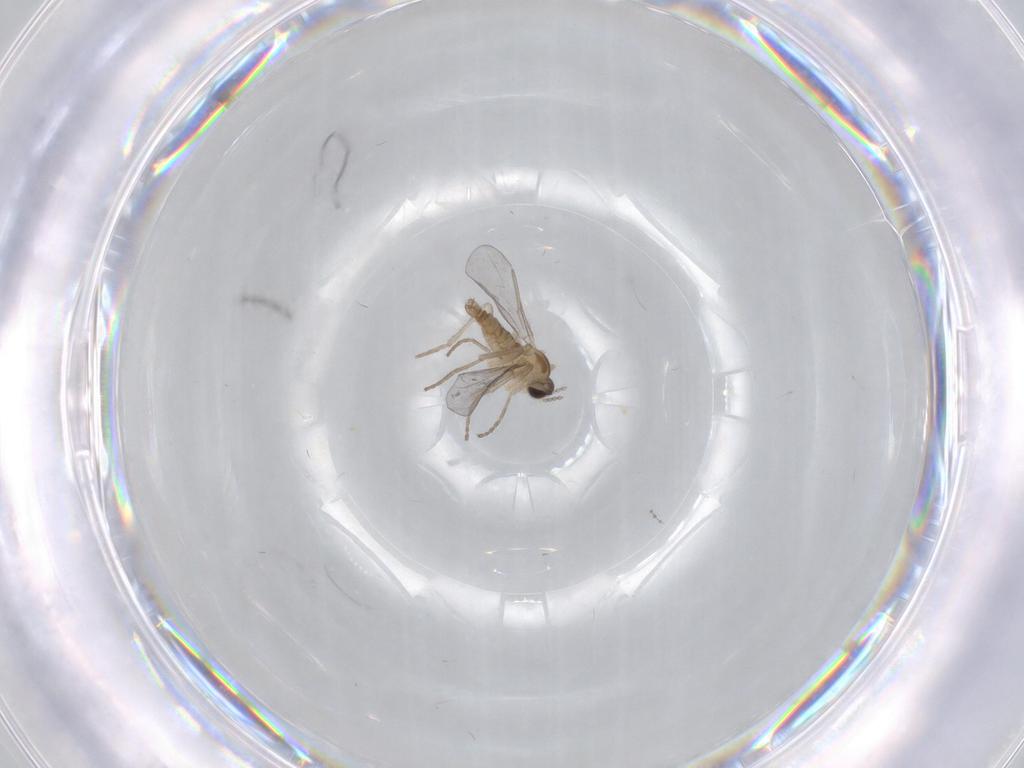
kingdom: Animalia
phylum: Arthropoda
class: Insecta
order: Diptera
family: Cecidomyiidae
